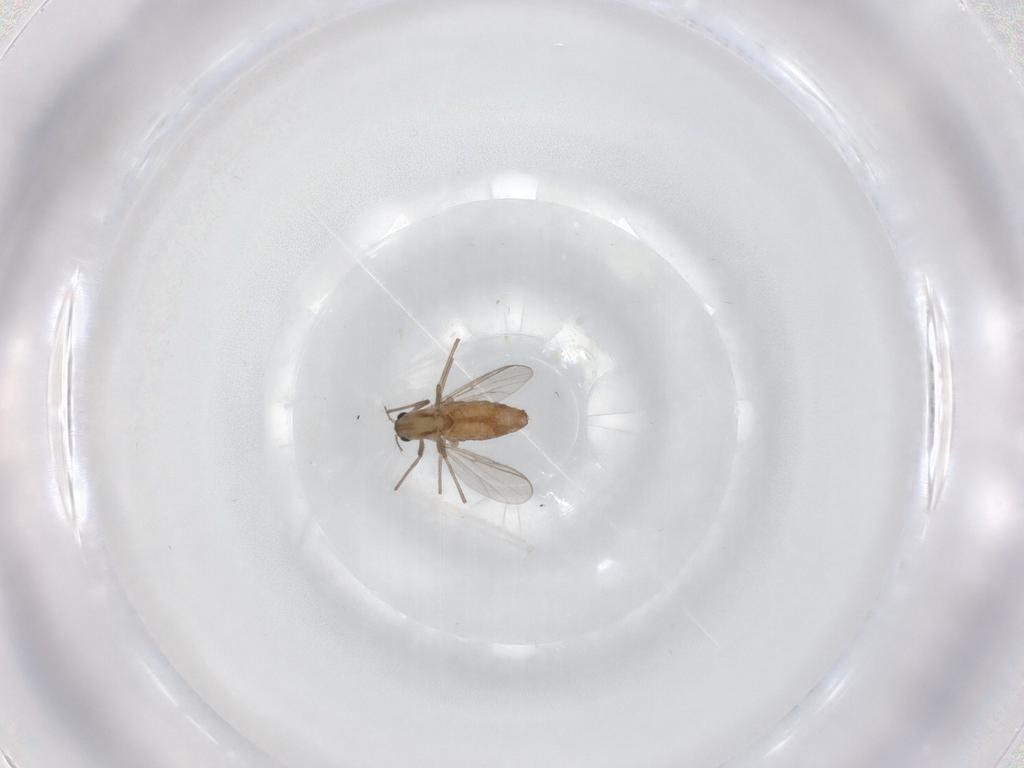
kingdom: Animalia
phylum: Arthropoda
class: Insecta
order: Diptera
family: Chironomidae
